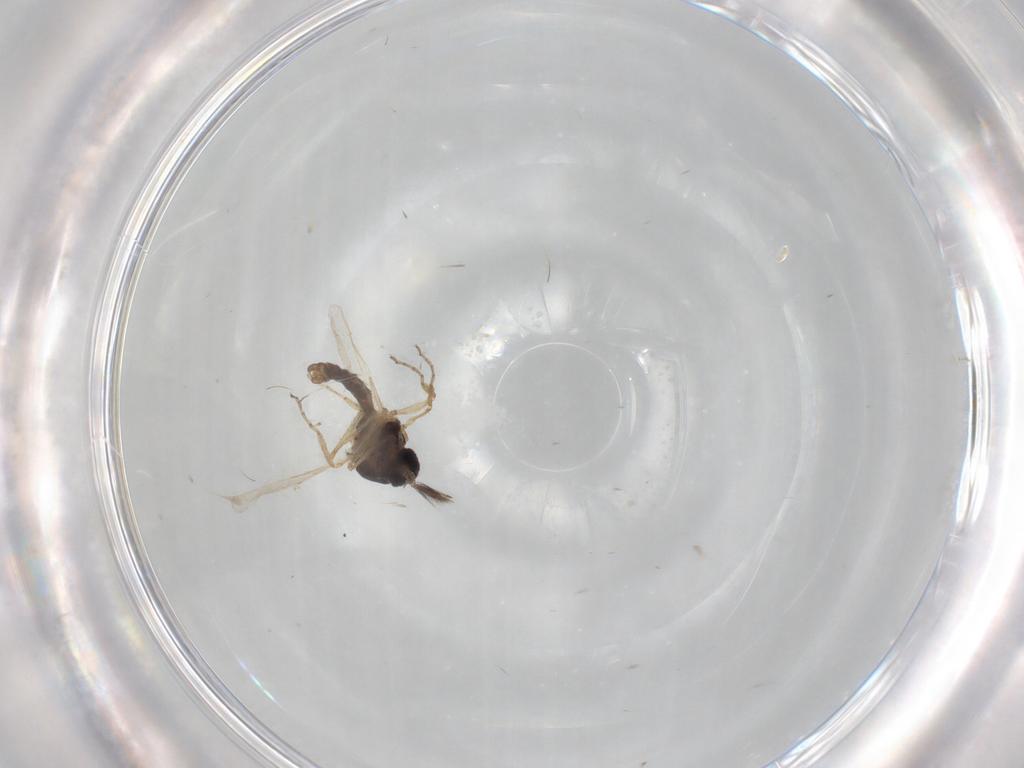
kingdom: Animalia
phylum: Arthropoda
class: Insecta
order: Diptera
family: Ceratopogonidae
